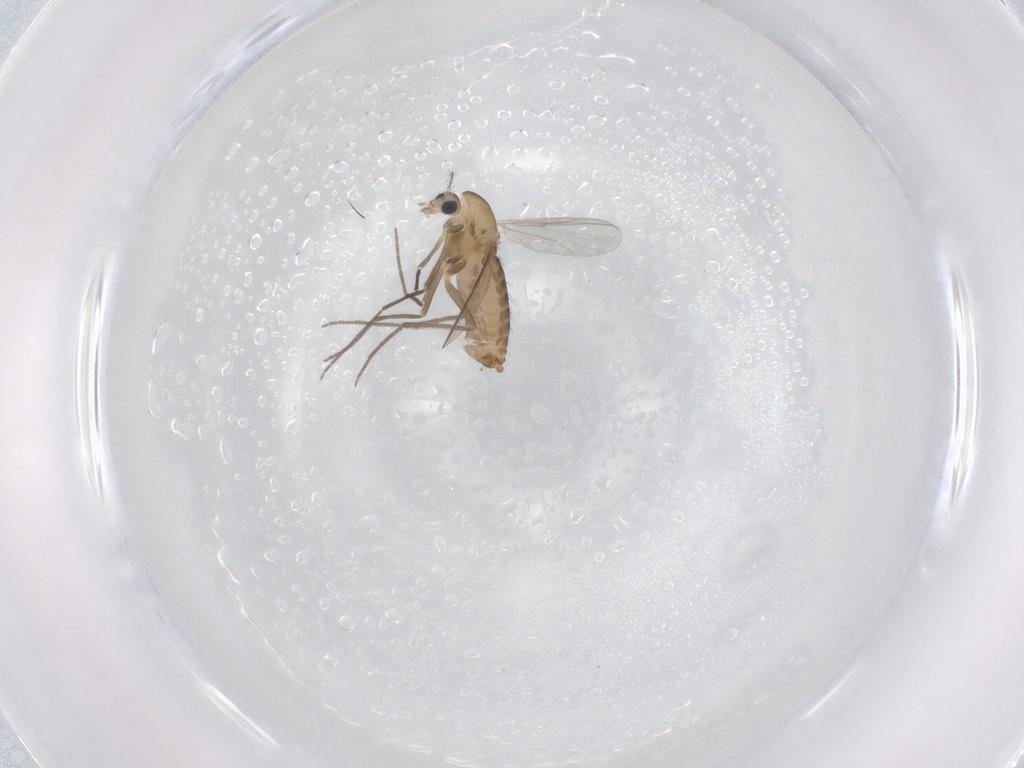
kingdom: Animalia
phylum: Arthropoda
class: Insecta
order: Diptera
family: Chironomidae
